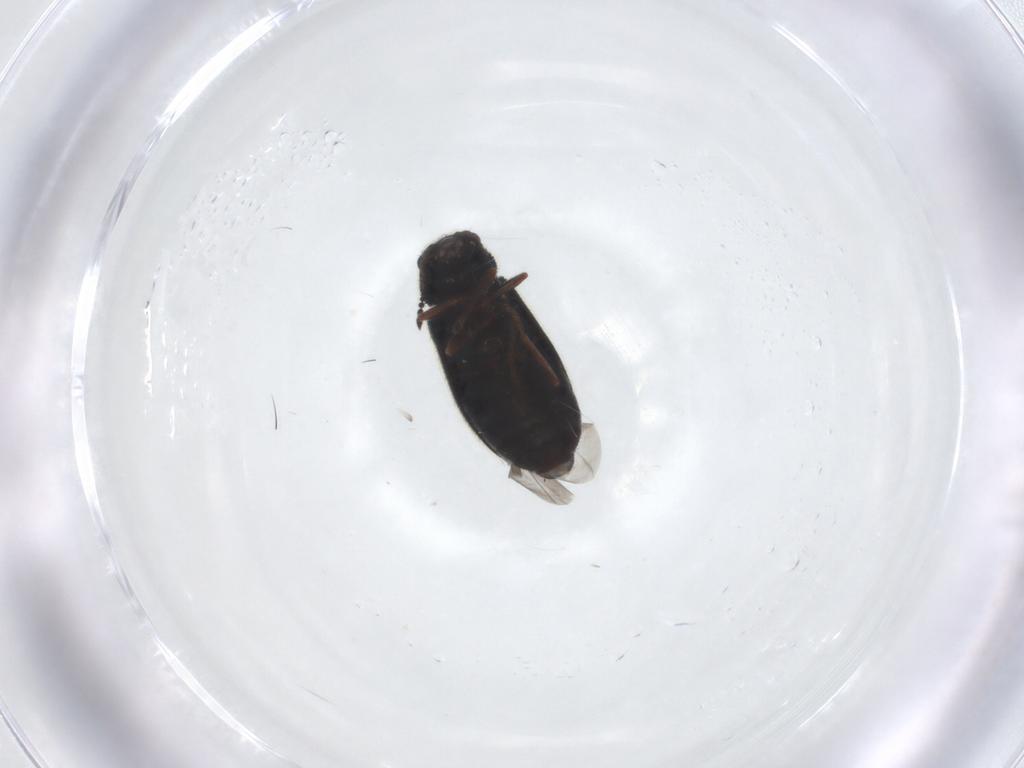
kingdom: Animalia
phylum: Arthropoda
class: Insecta
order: Coleoptera
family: Melyridae
